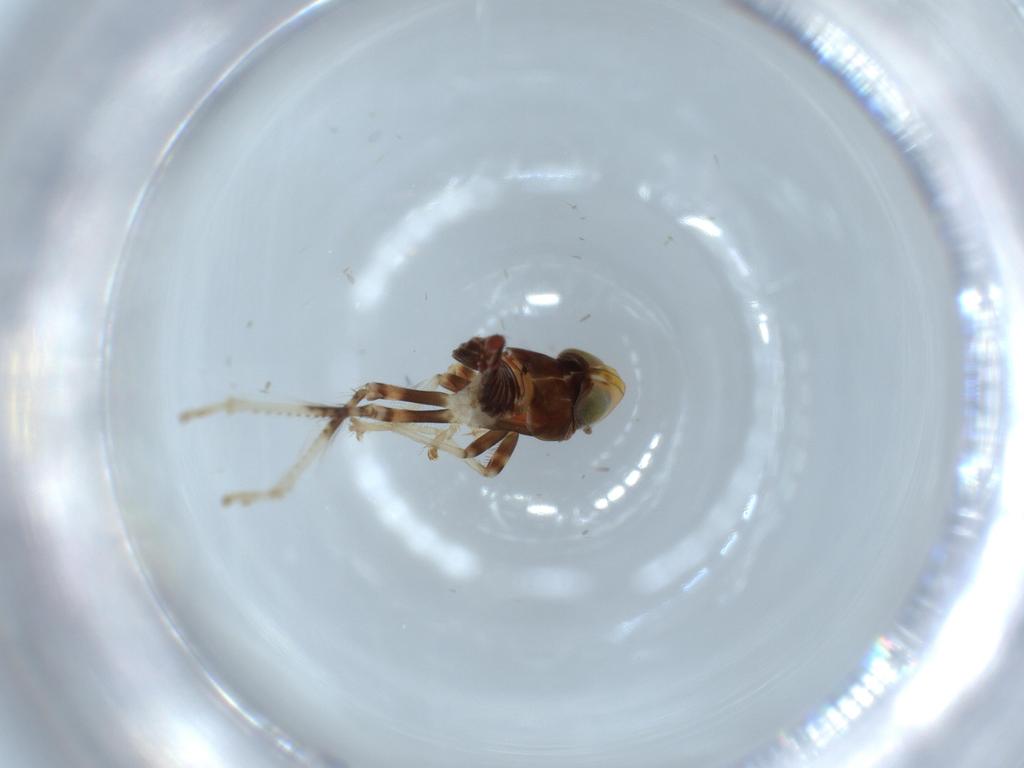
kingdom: Animalia
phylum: Arthropoda
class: Insecta
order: Hemiptera
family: Cicadellidae
